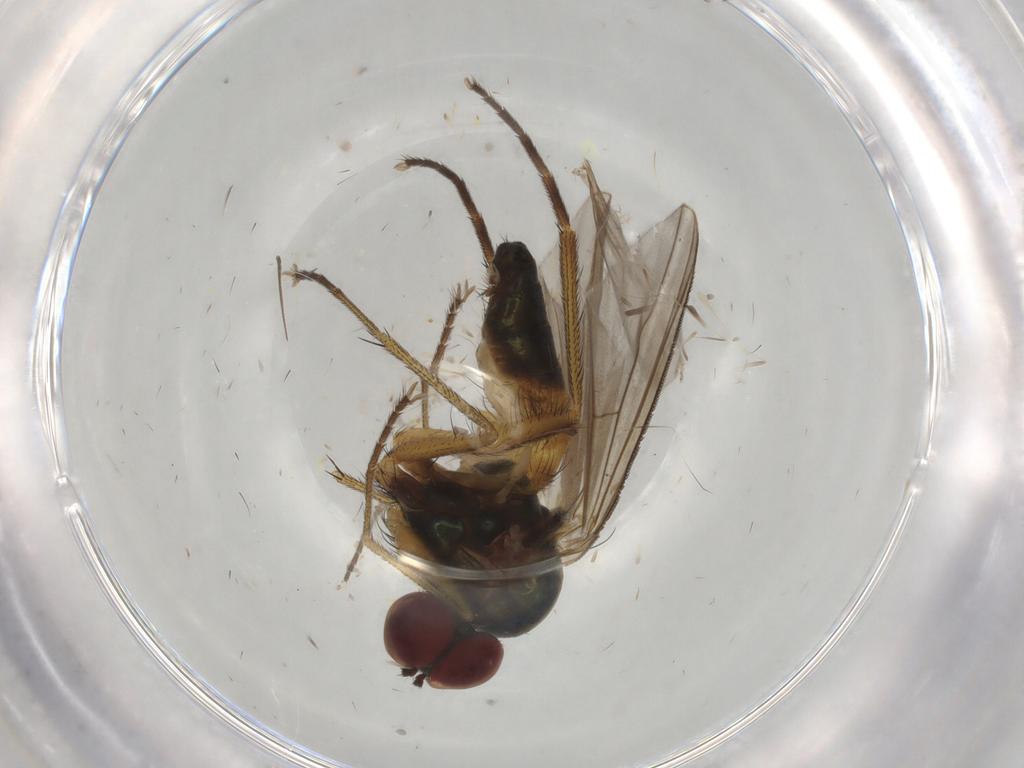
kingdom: Animalia
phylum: Arthropoda
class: Insecta
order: Diptera
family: Dolichopodidae
